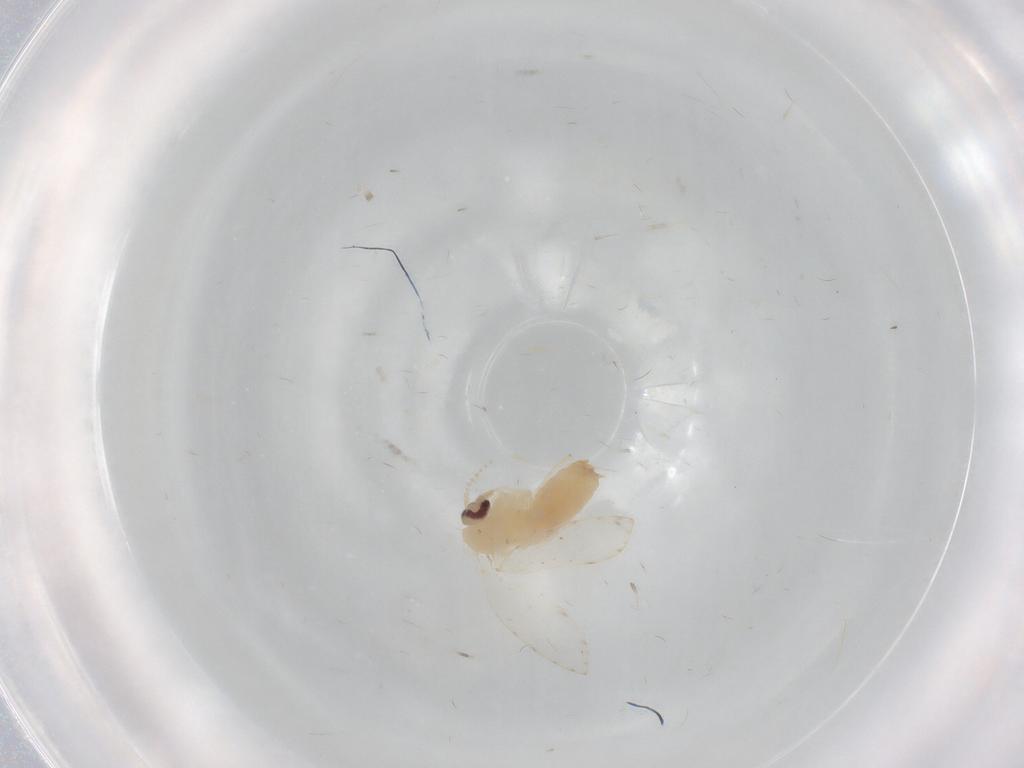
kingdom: Animalia
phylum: Arthropoda
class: Insecta
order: Diptera
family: Psychodidae
